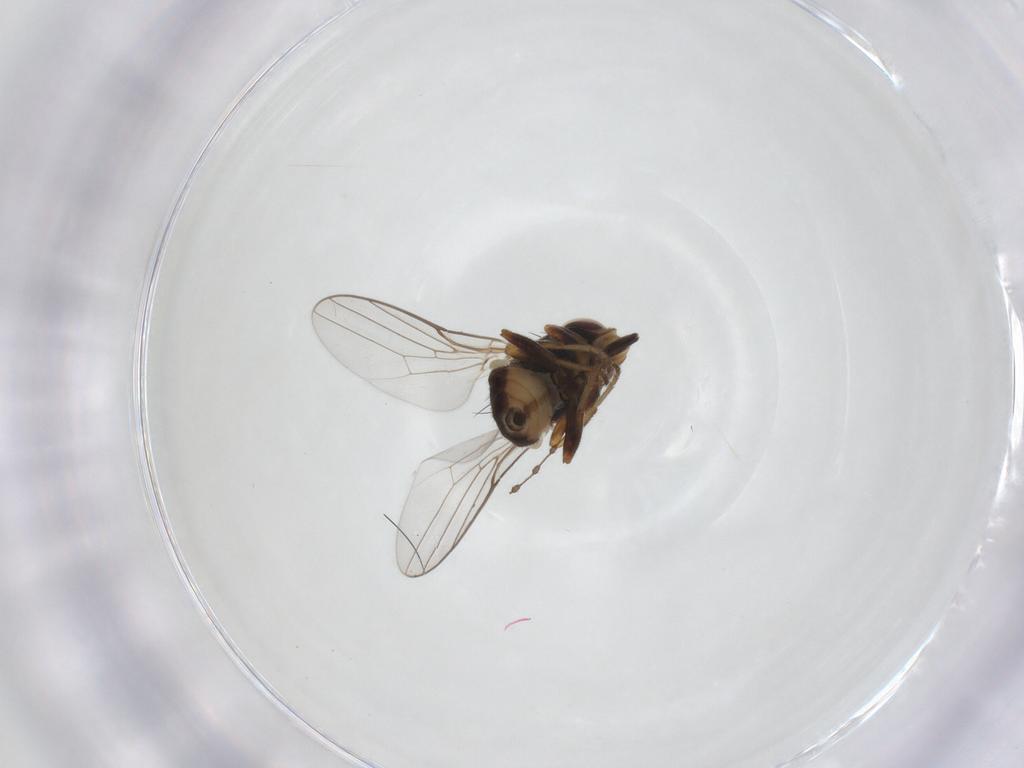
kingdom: Animalia
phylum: Arthropoda
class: Insecta
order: Diptera
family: Chloropidae
